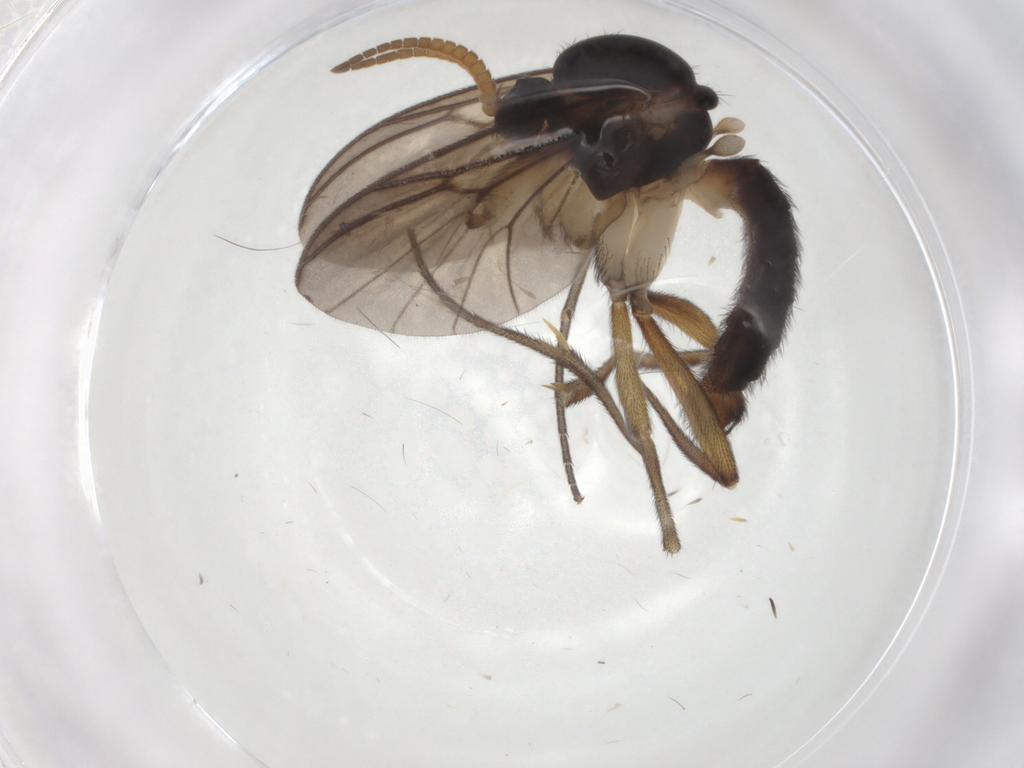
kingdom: Animalia
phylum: Arthropoda
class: Insecta
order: Diptera
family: Mycetophilidae
